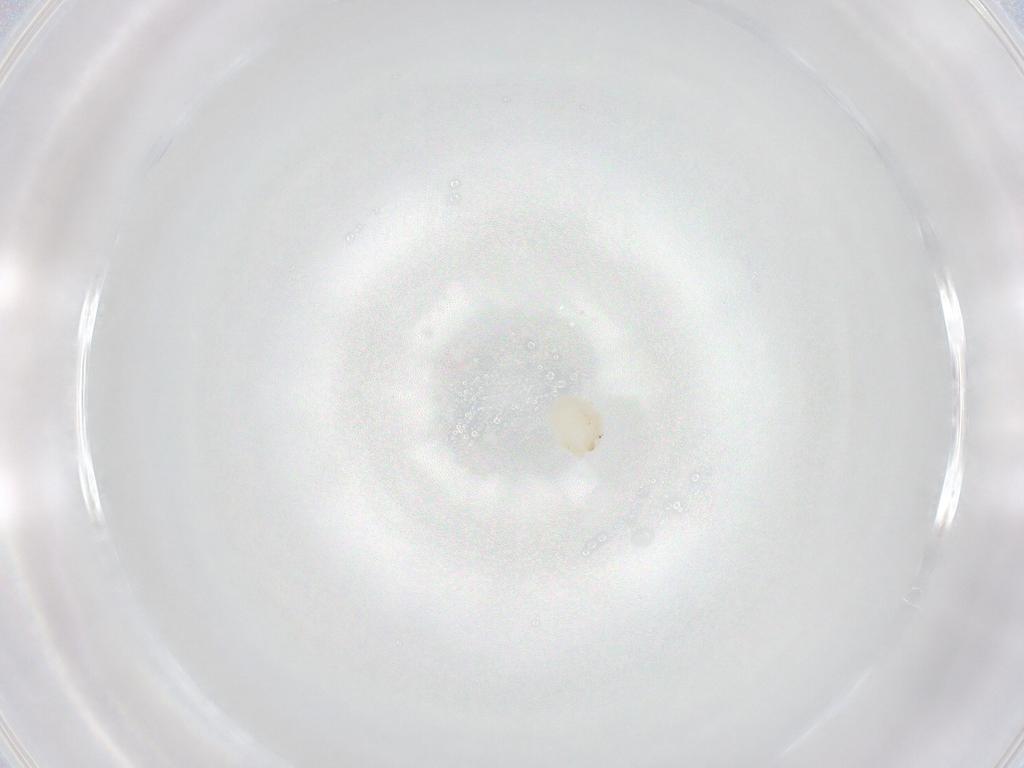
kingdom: Animalia
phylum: Arthropoda
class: Arachnida
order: Trombidiformes
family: Hydryphantidae
